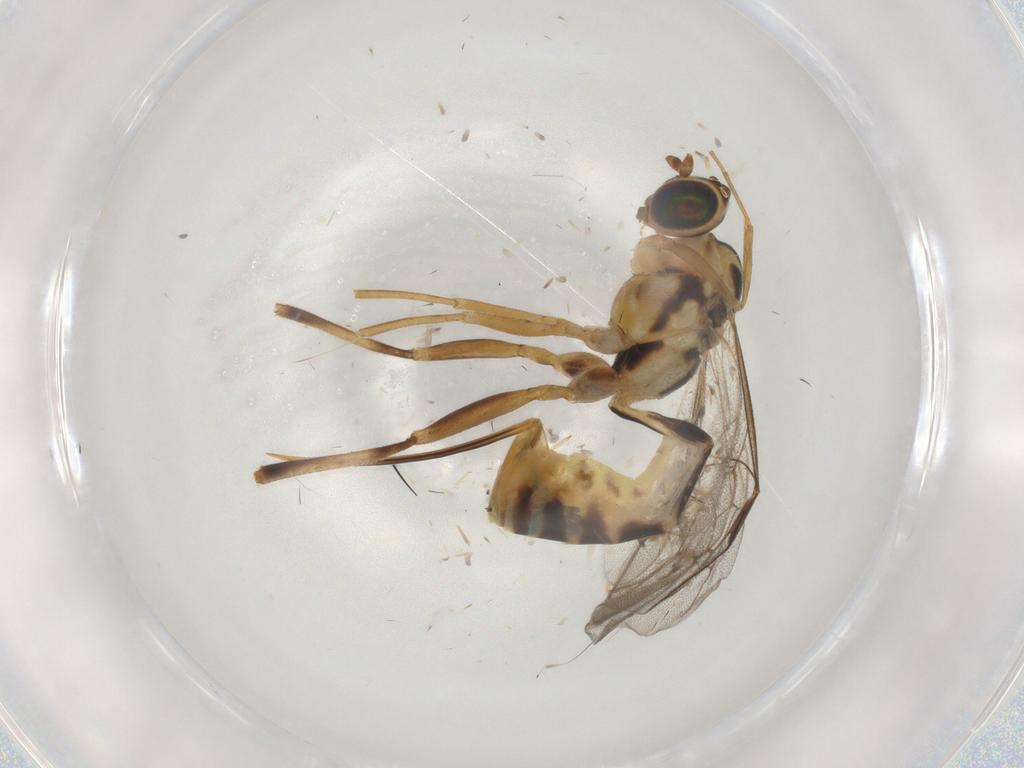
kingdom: Animalia
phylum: Arthropoda
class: Insecta
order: Hymenoptera
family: Ichneumonidae
